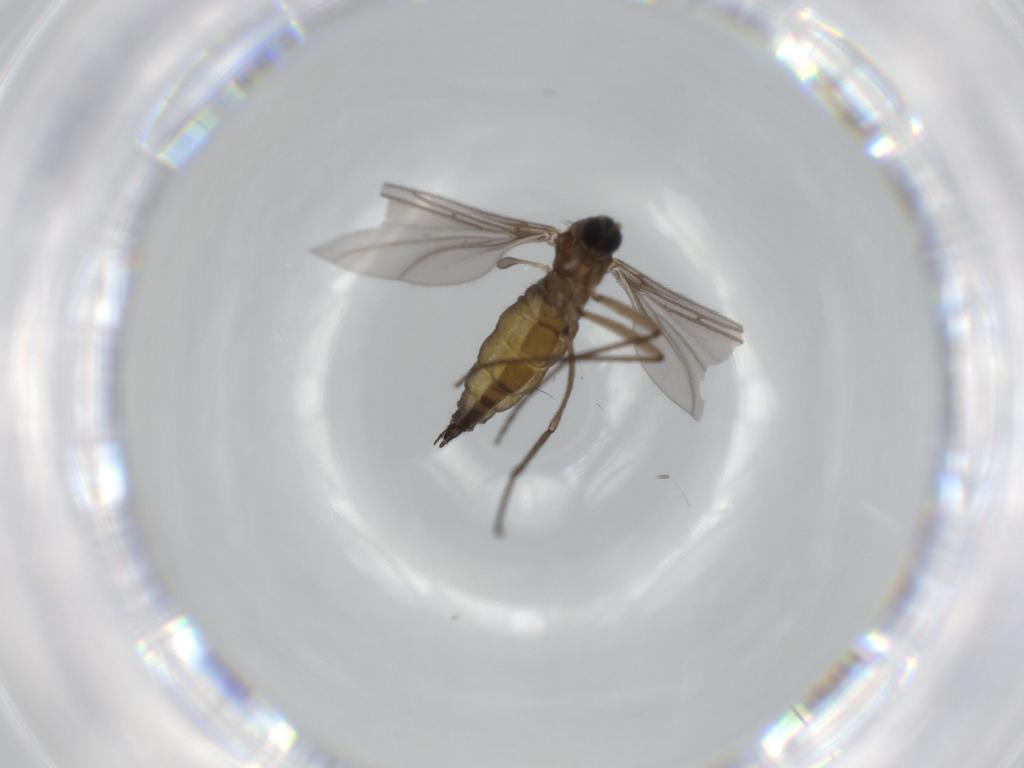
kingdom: Animalia
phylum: Arthropoda
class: Insecta
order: Diptera
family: Sciaridae
